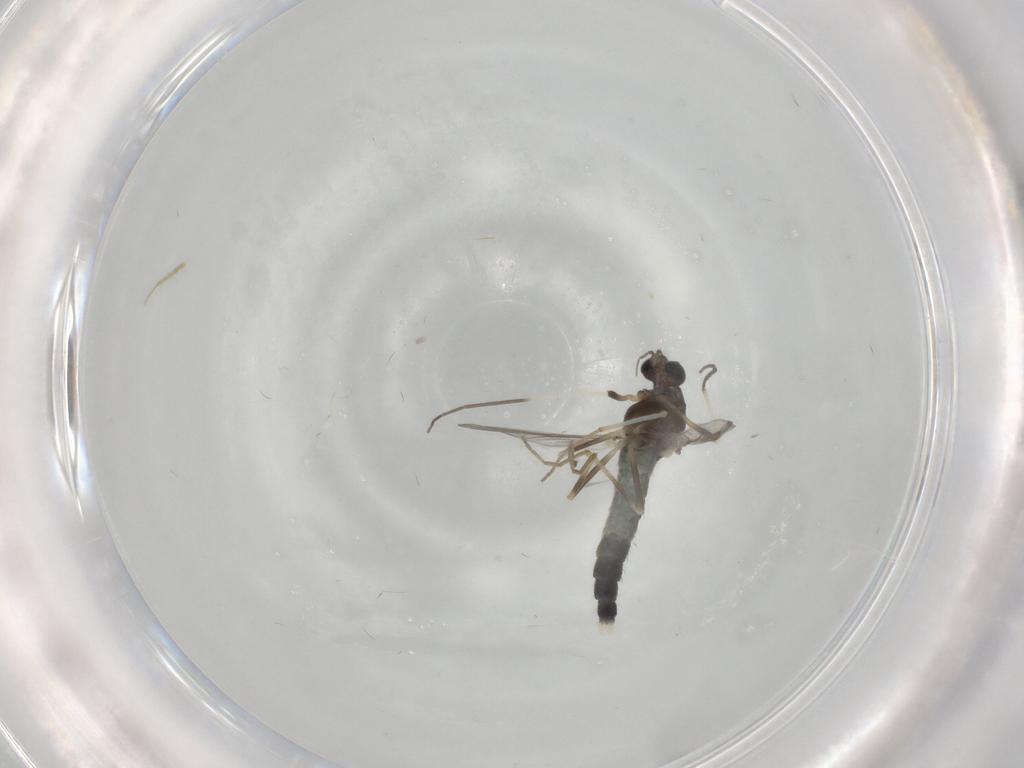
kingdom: Animalia
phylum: Arthropoda
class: Insecta
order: Diptera
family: Chironomidae
